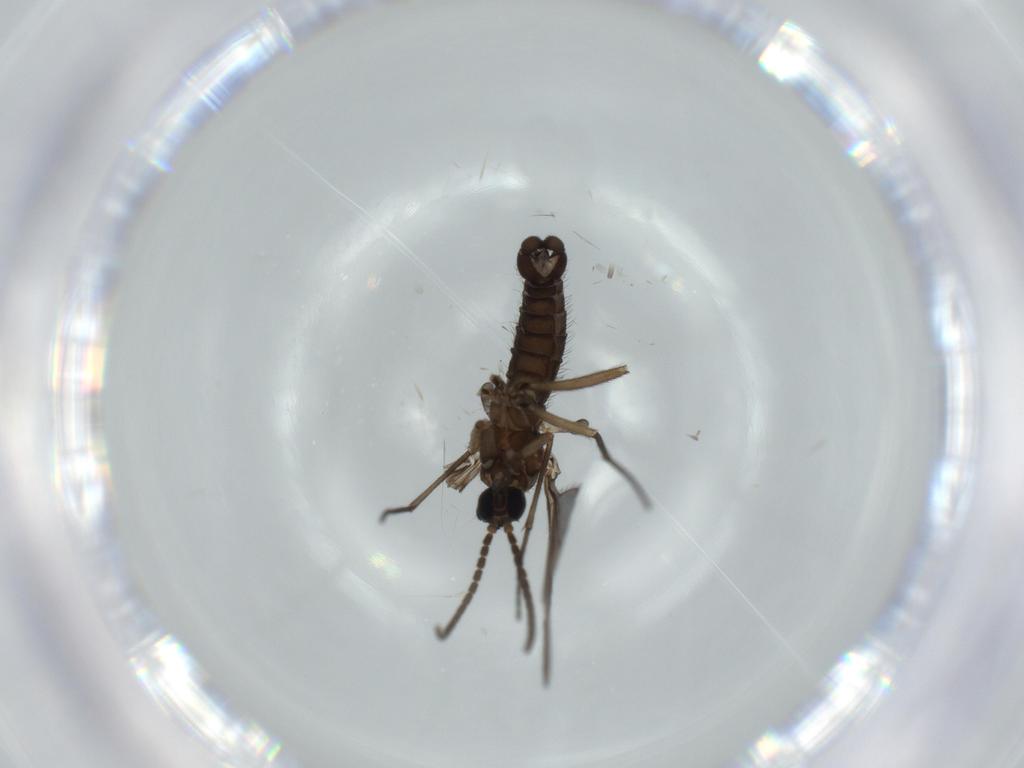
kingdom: Animalia
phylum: Arthropoda
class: Insecta
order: Diptera
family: Sciaridae
